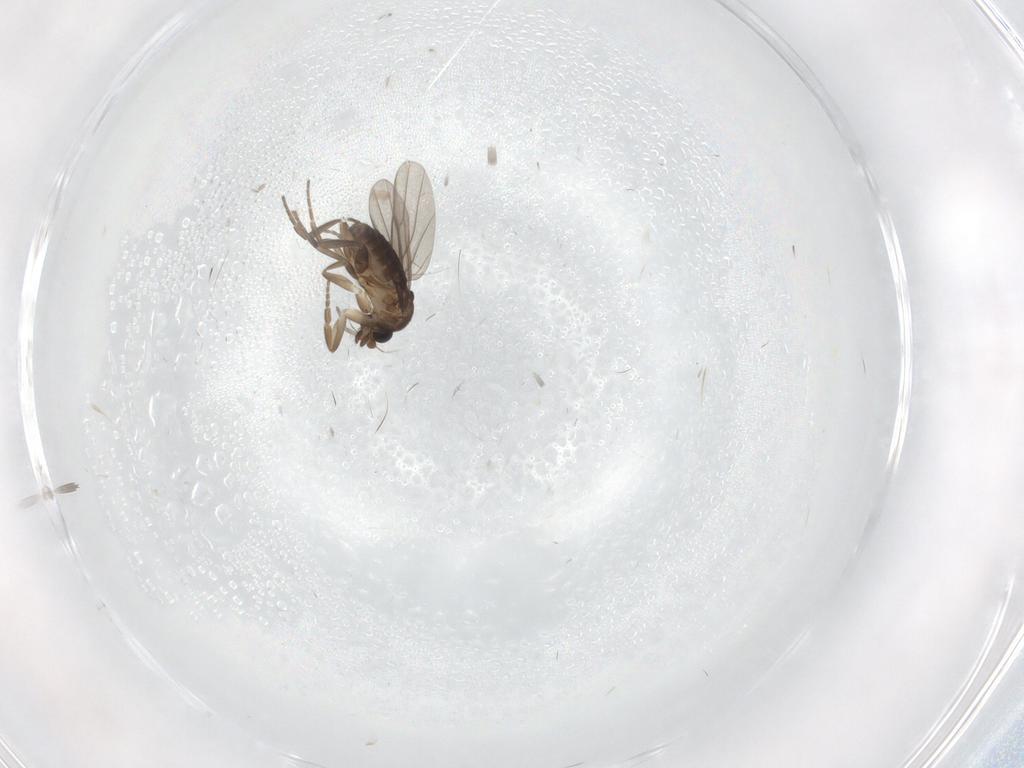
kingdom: Animalia
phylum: Arthropoda
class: Insecta
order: Diptera
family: Phoridae
